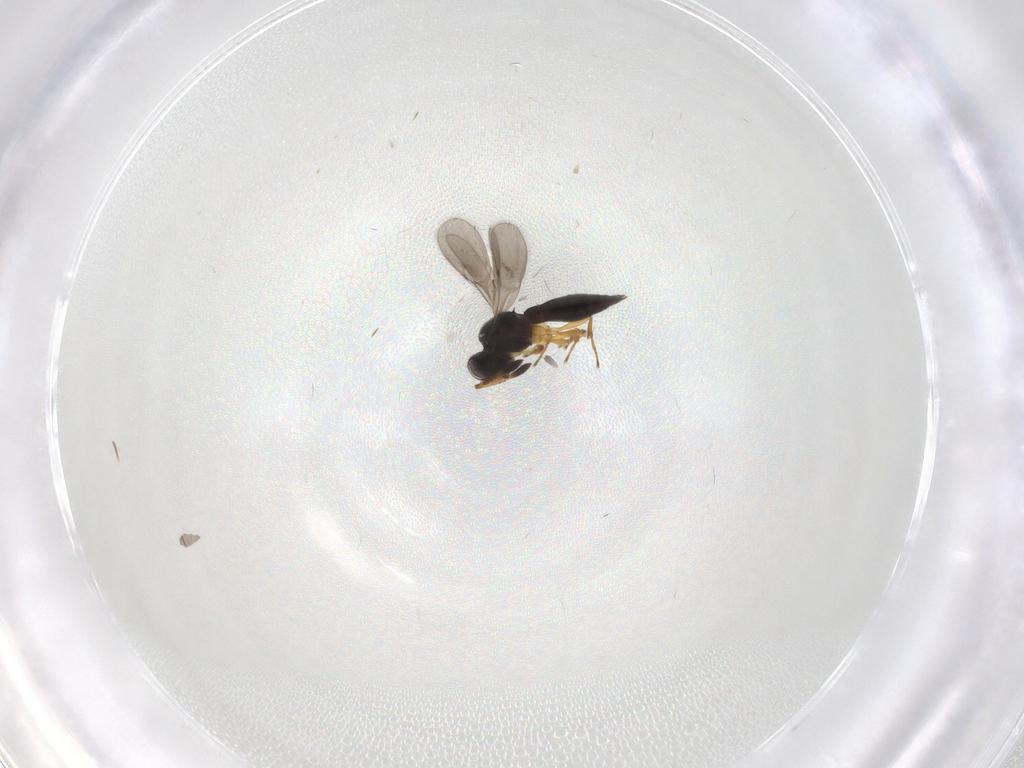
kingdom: Animalia
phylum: Arthropoda
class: Insecta
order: Hymenoptera
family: Scelionidae
